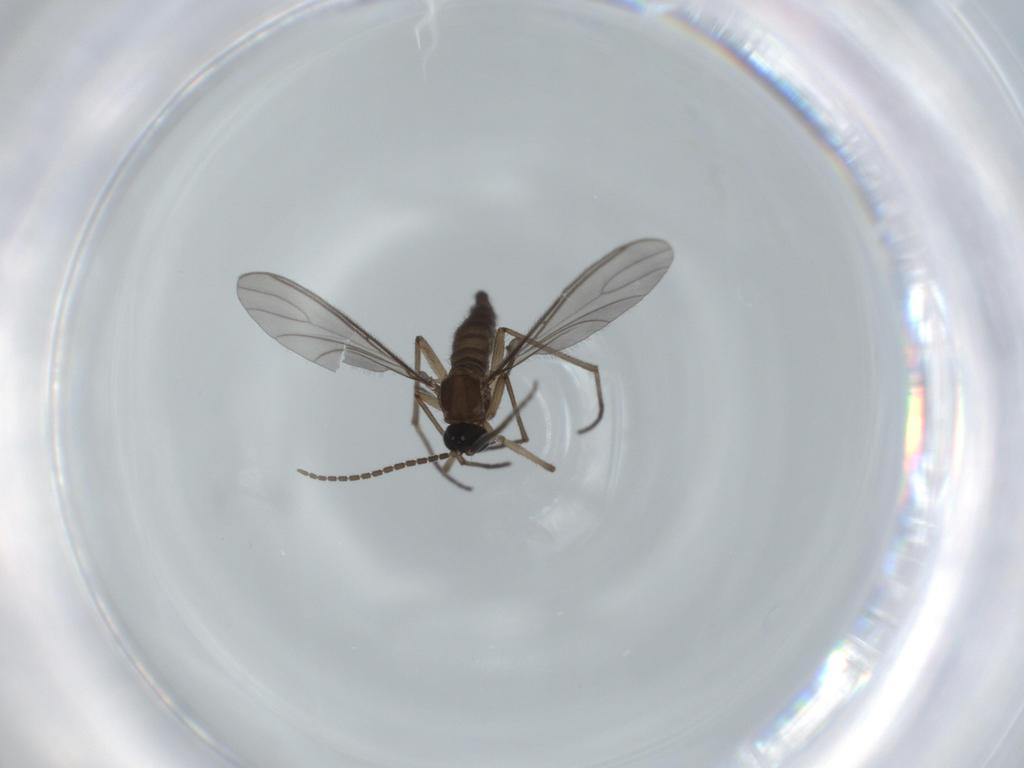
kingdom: Animalia
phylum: Arthropoda
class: Insecta
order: Diptera
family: Sciaridae
